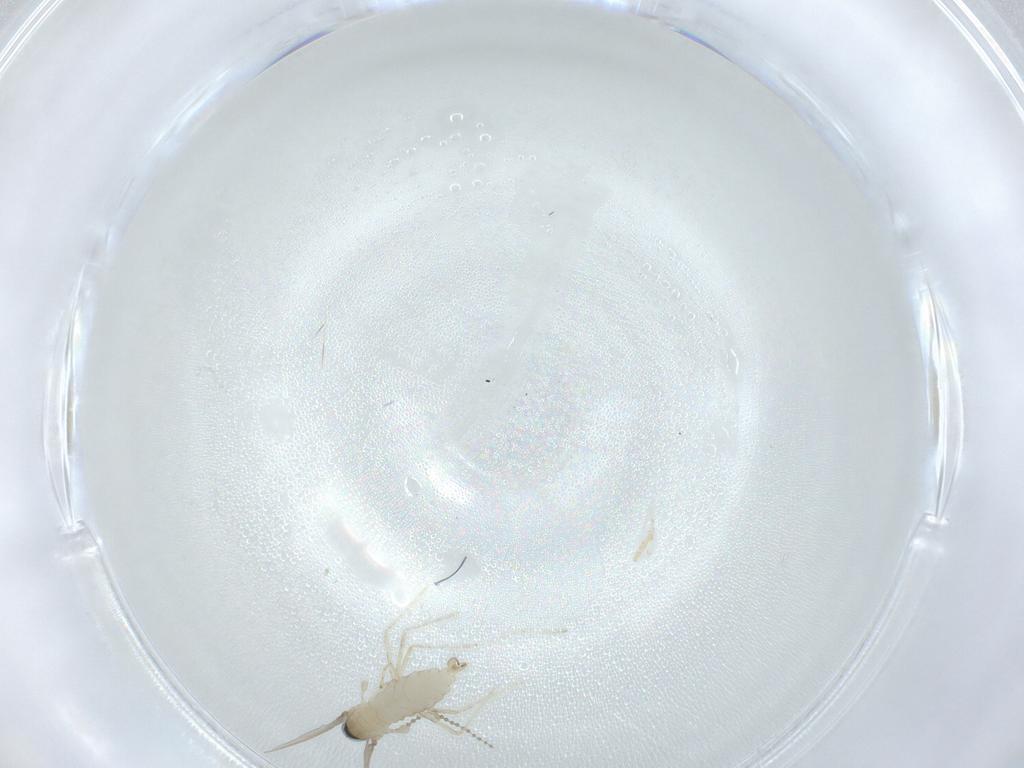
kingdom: Animalia
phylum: Arthropoda
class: Insecta
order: Diptera
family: Cecidomyiidae
